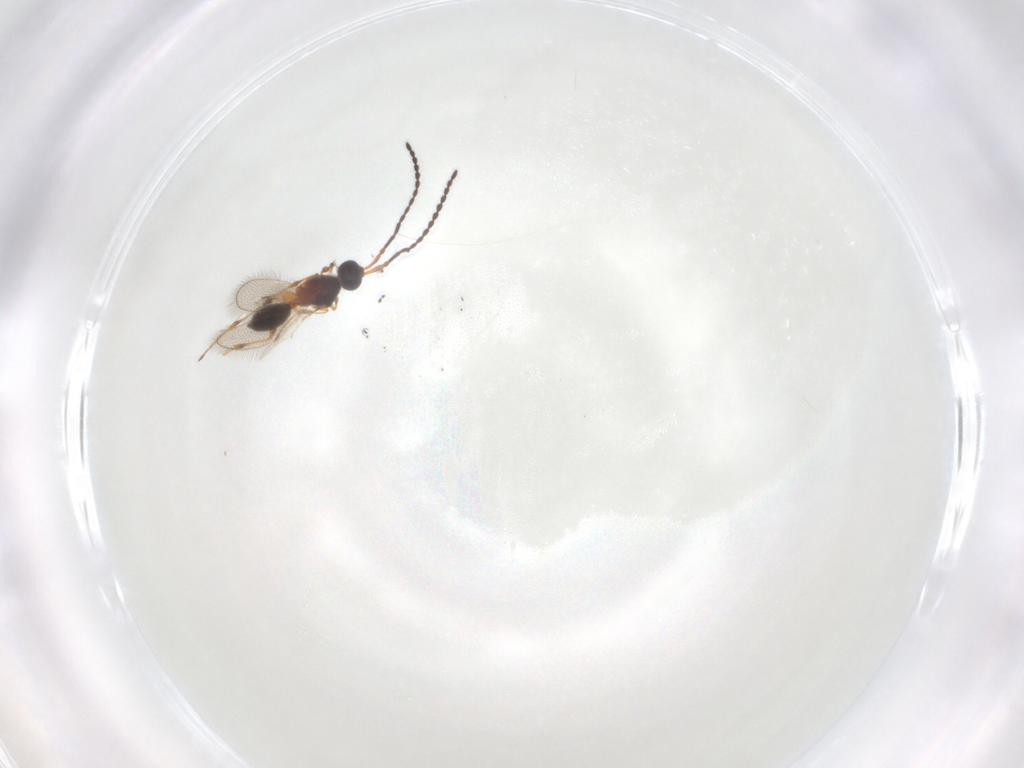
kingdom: Animalia
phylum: Arthropoda
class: Insecta
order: Hymenoptera
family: Diapriidae
